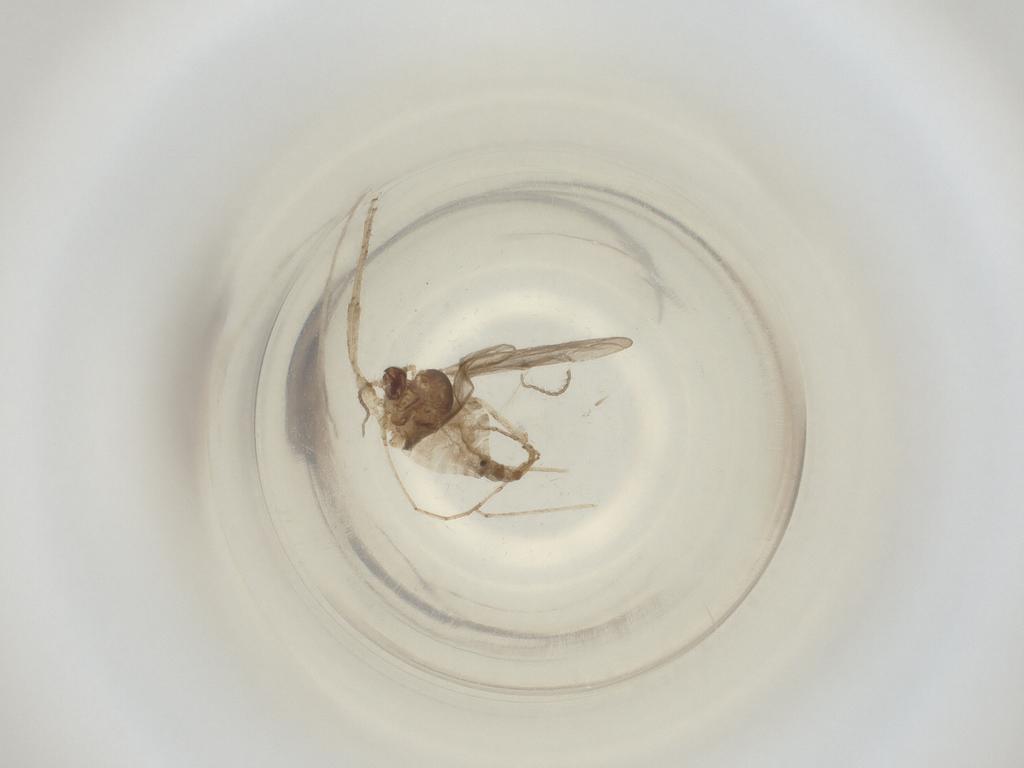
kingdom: Animalia
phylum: Arthropoda
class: Insecta
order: Diptera
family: Cecidomyiidae
